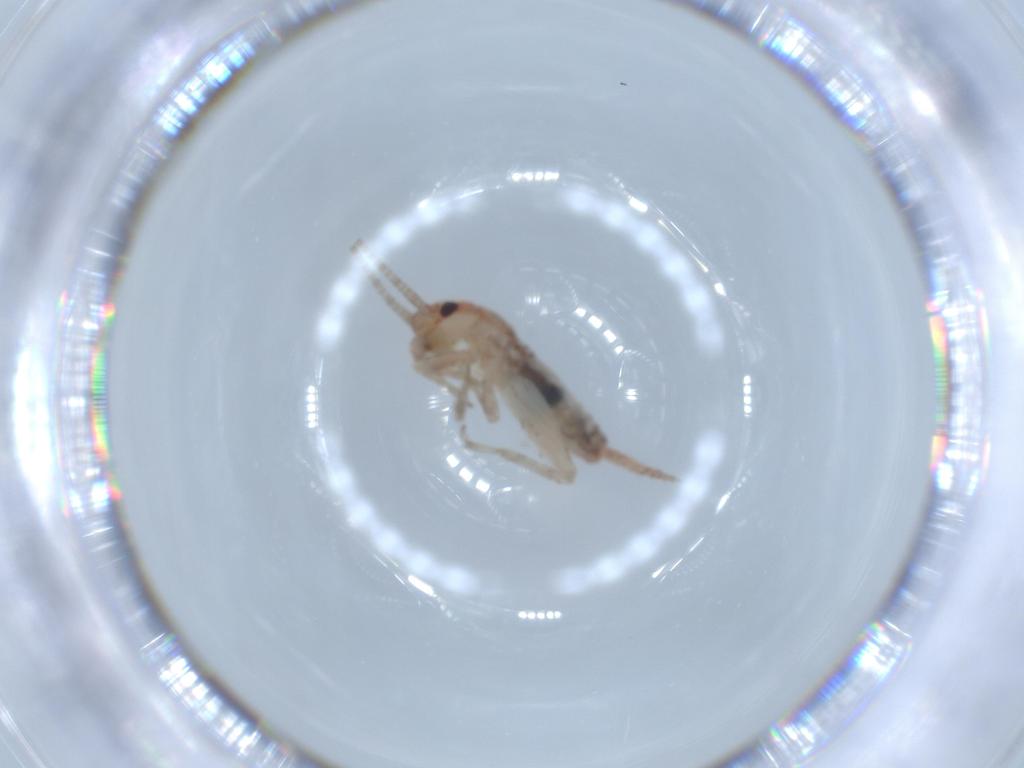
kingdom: Animalia
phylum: Arthropoda
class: Insecta
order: Orthoptera
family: Mogoplistidae
